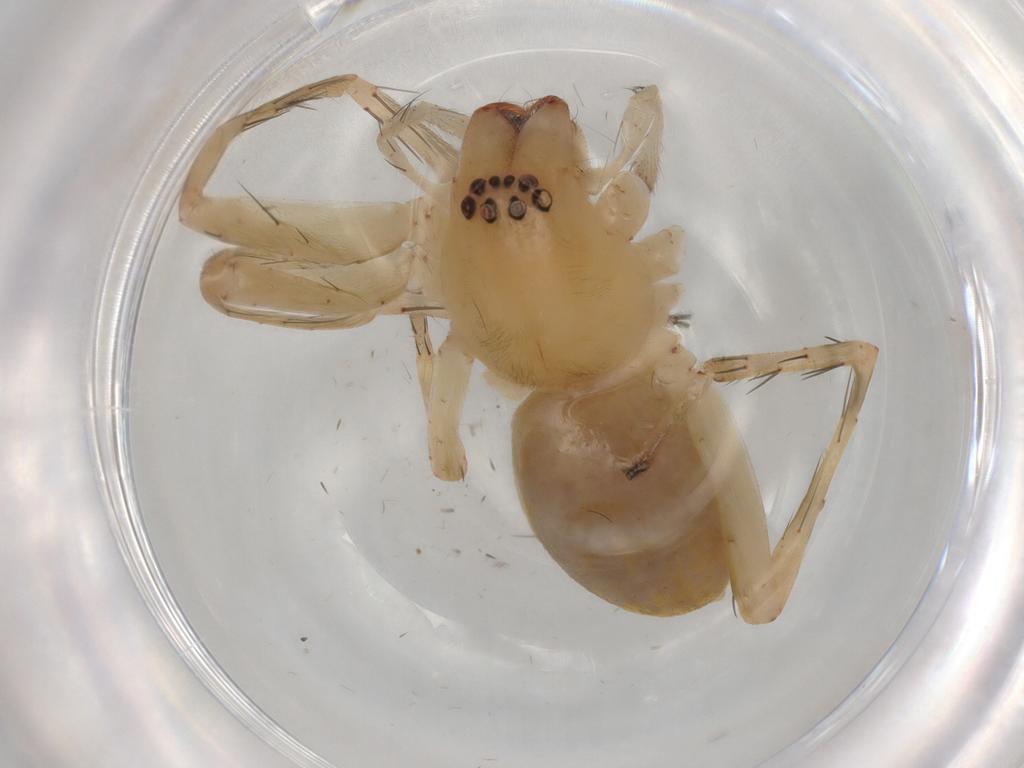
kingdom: Animalia
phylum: Arthropoda
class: Arachnida
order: Araneae
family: Anyphaenidae
